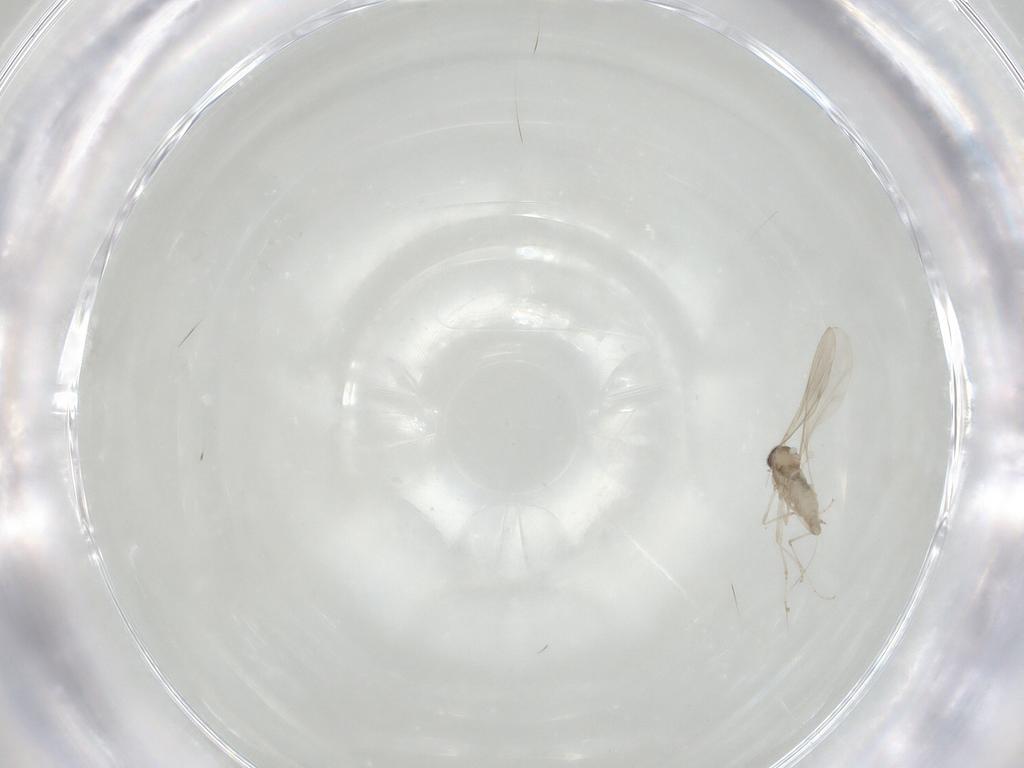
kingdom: Animalia
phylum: Arthropoda
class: Insecta
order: Diptera
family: Cecidomyiidae
